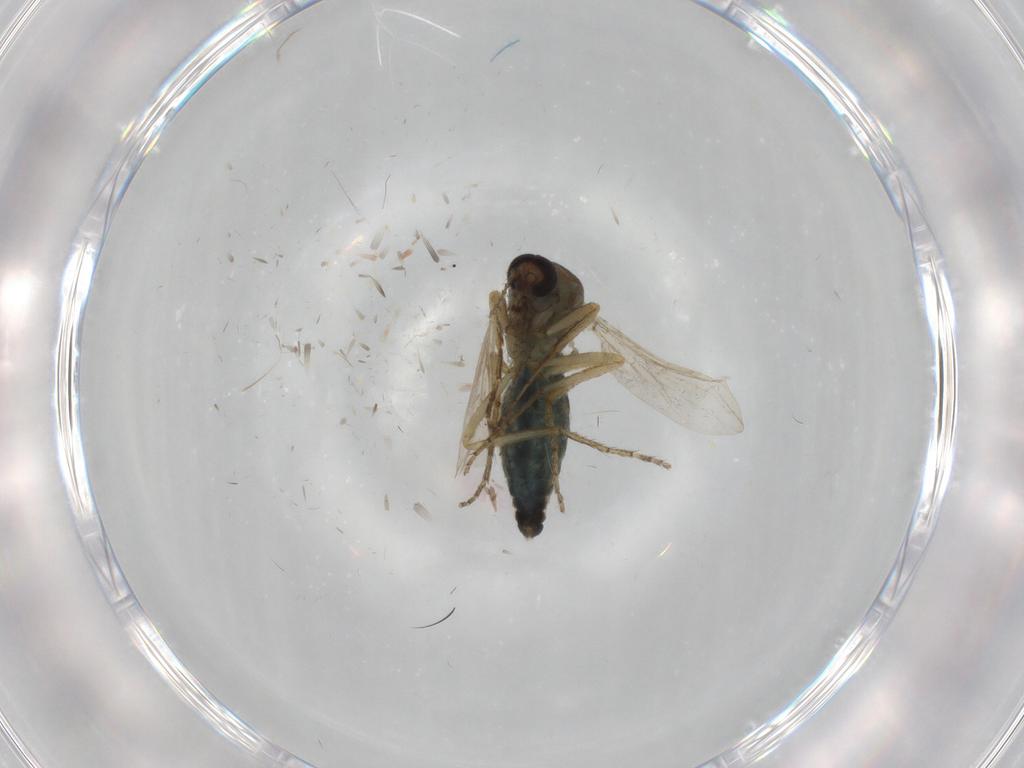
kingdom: Animalia
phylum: Arthropoda
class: Insecta
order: Diptera
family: Ceratopogonidae
